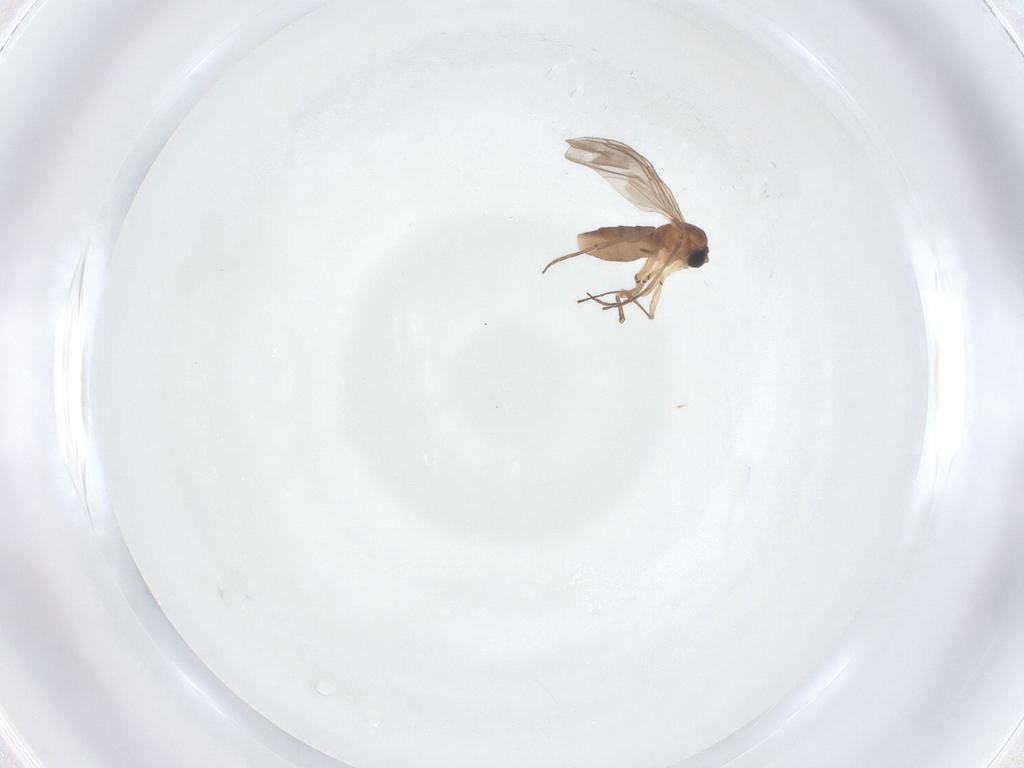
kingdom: Animalia
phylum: Arthropoda
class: Insecta
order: Diptera
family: Sciaridae
